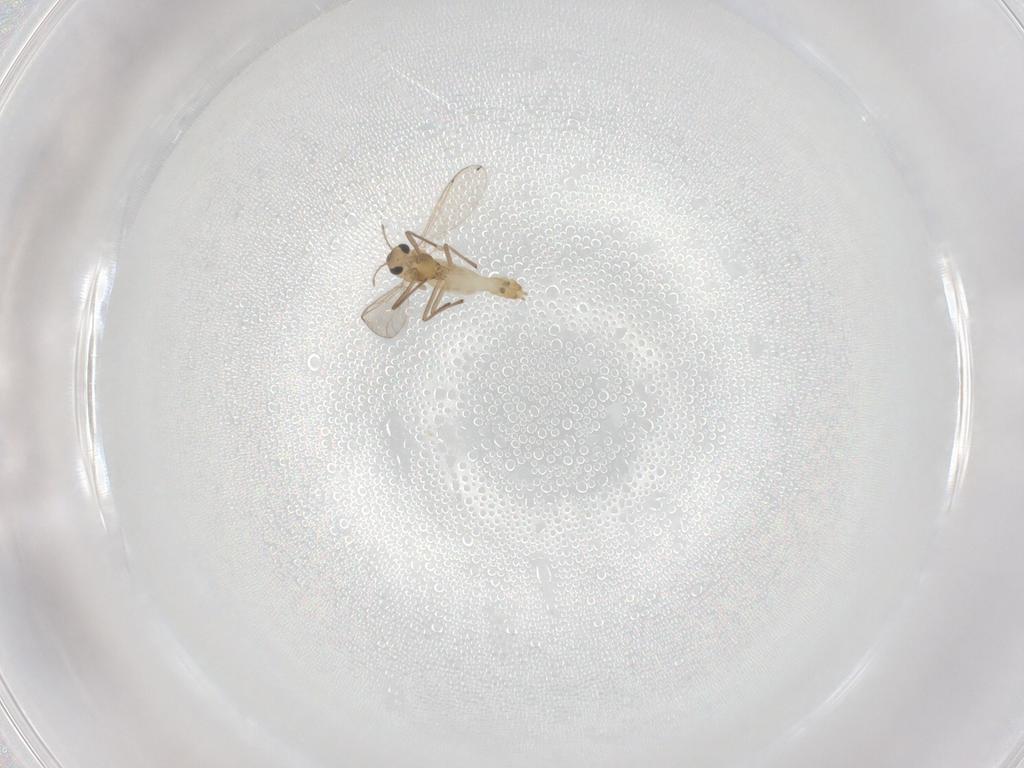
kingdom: Animalia
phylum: Arthropoda
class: Insecta
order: Diptera
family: Chironomidae
